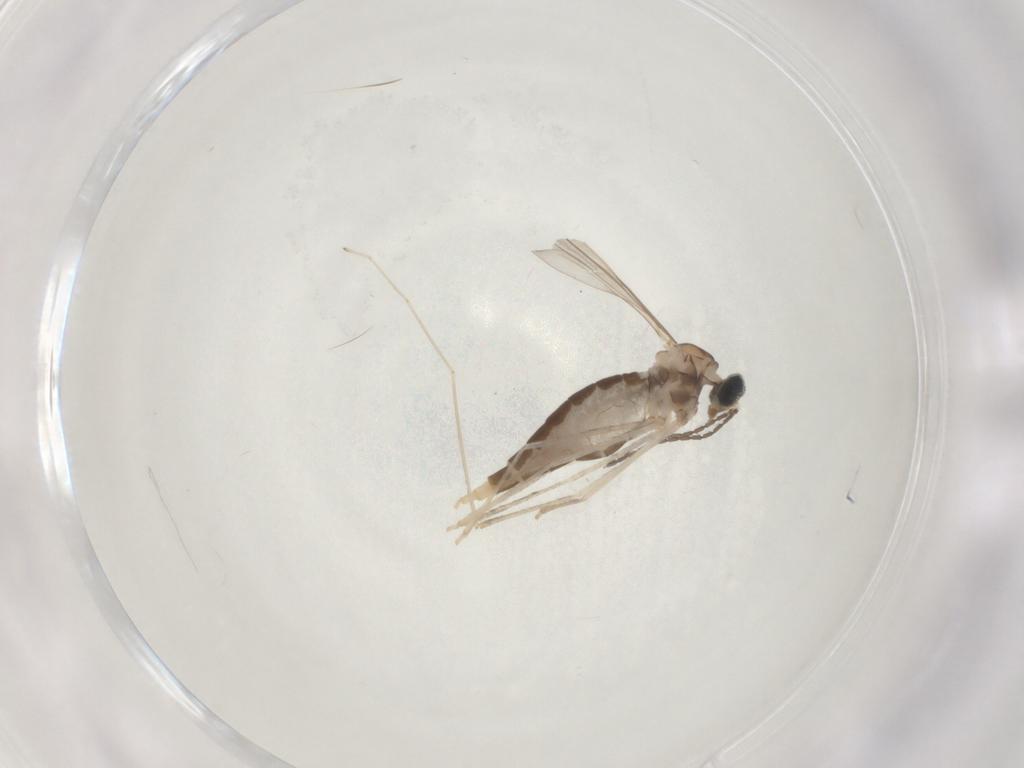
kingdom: Animalia
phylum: Arthropoda
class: Insecta
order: Diptera
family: Cecidomyiidae
